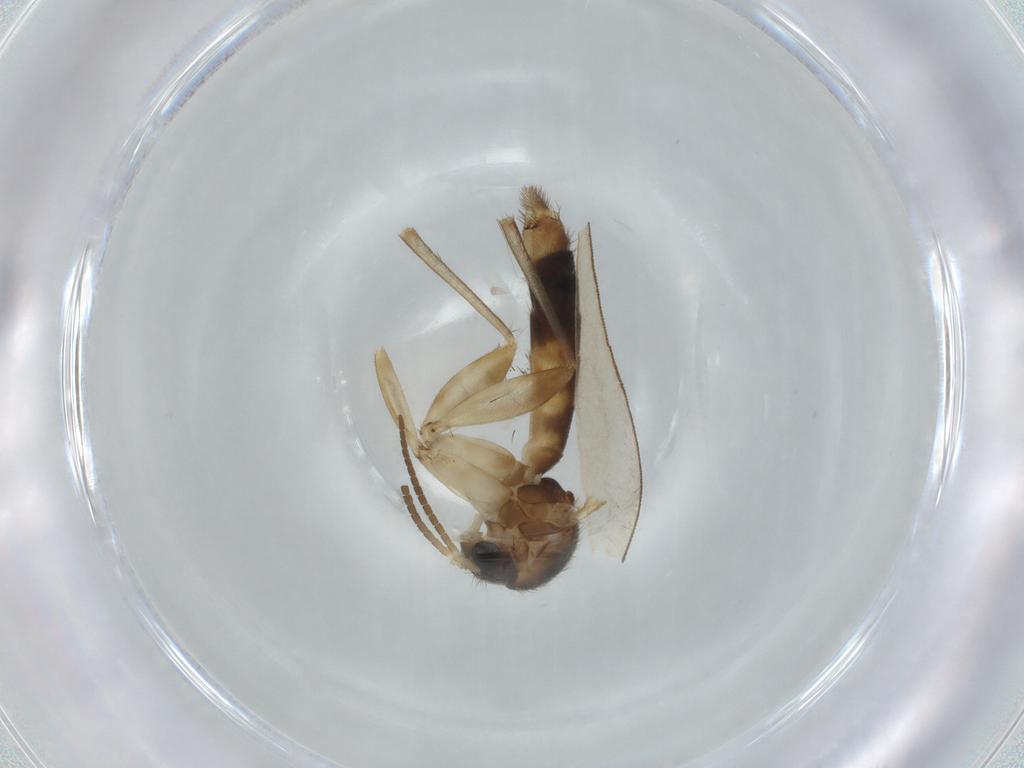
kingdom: Animalia
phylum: Arthropoda
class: Insecta
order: Diptera
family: Mycetophilidae
